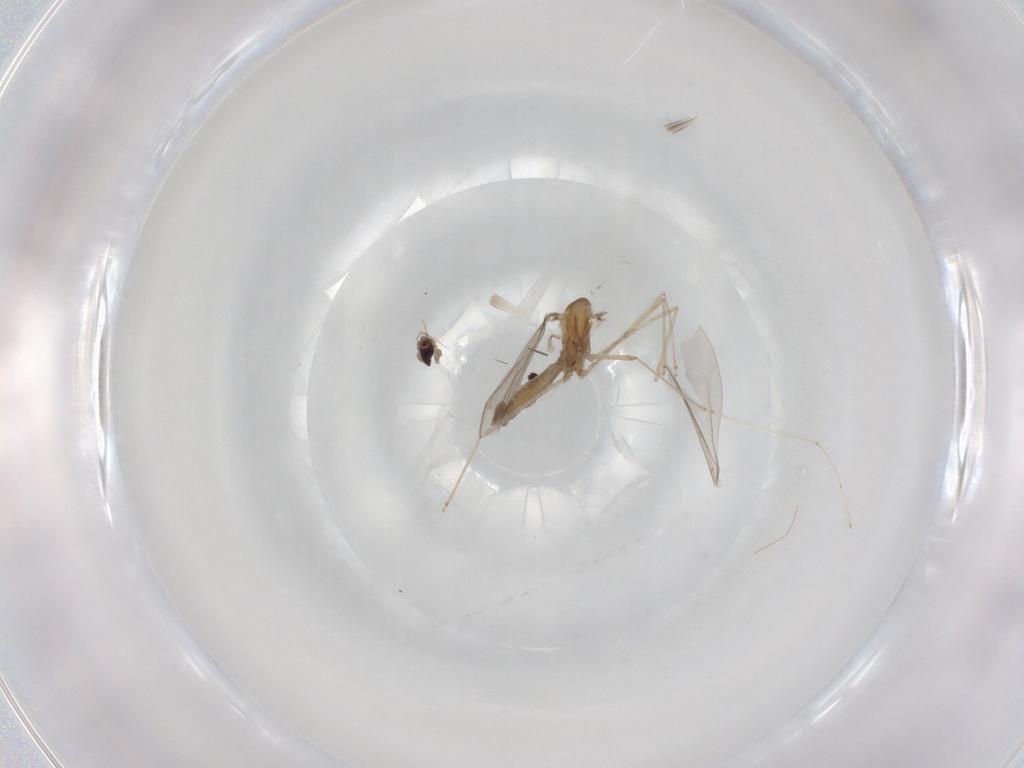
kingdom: Animalia
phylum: Arthropoda
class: Insecta
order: Diptera
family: Cecidomyiidae
